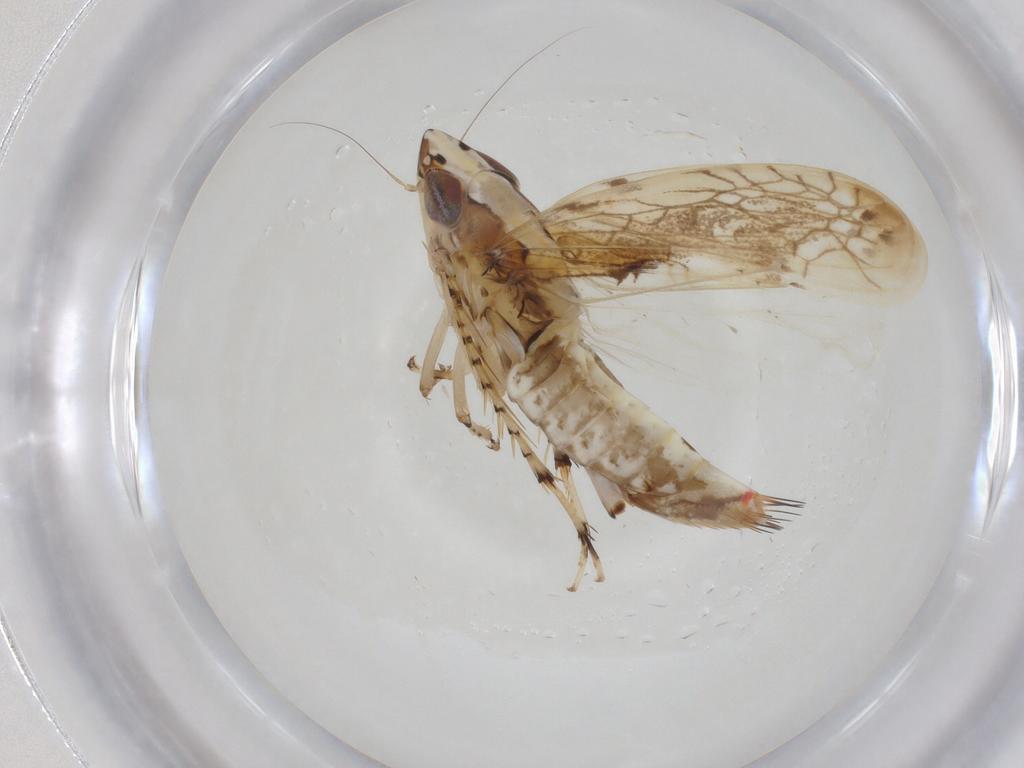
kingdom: Animalia
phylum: Arthropoda
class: Insecta
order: Hemiptera
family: Cicadellidae
